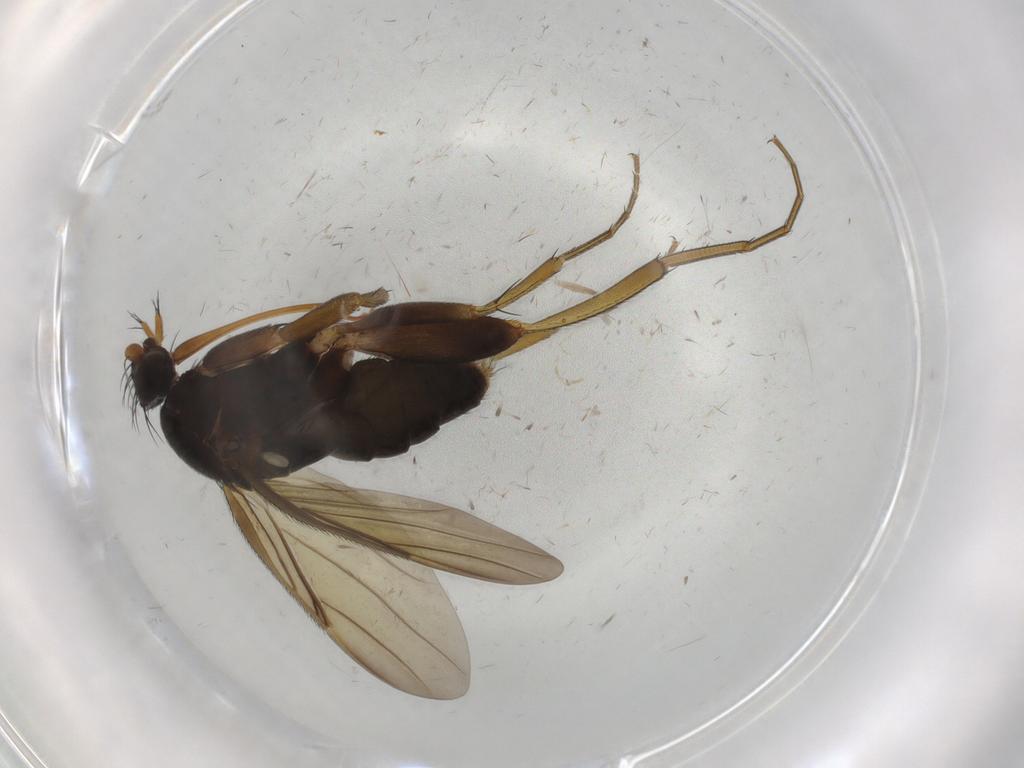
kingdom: Animalia
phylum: Arthropoda
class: Insecta
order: Diptera
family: Phoridae
